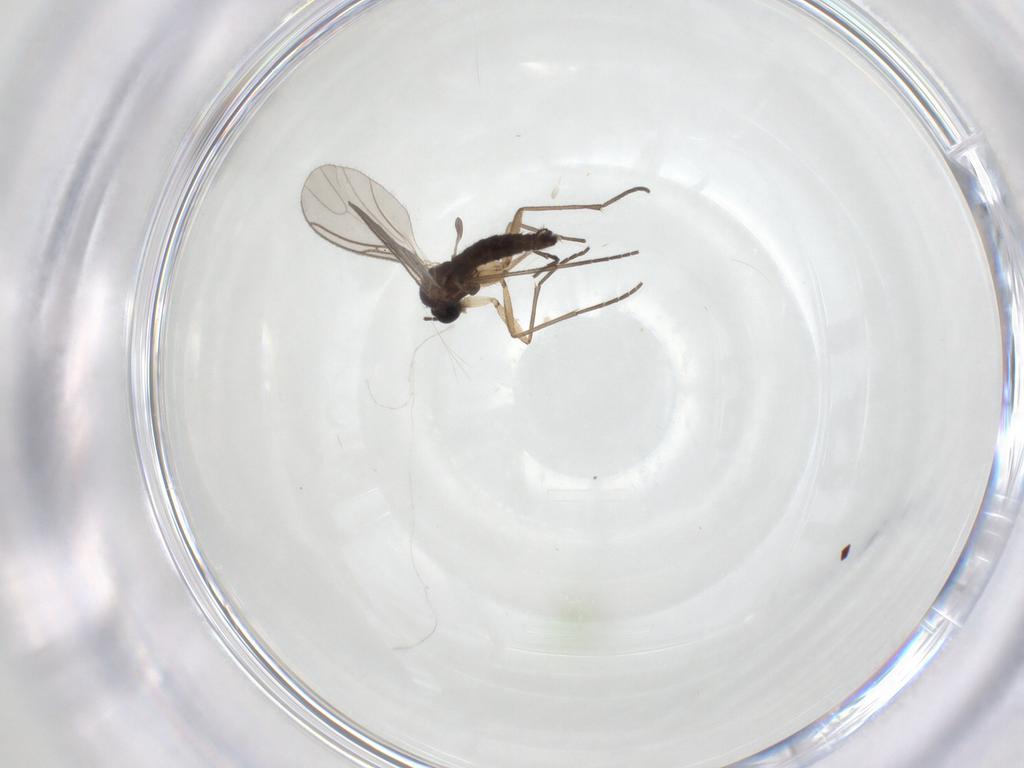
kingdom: Animalia
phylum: Arthropoda
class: Insecta
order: Diptera
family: Sciaridae
